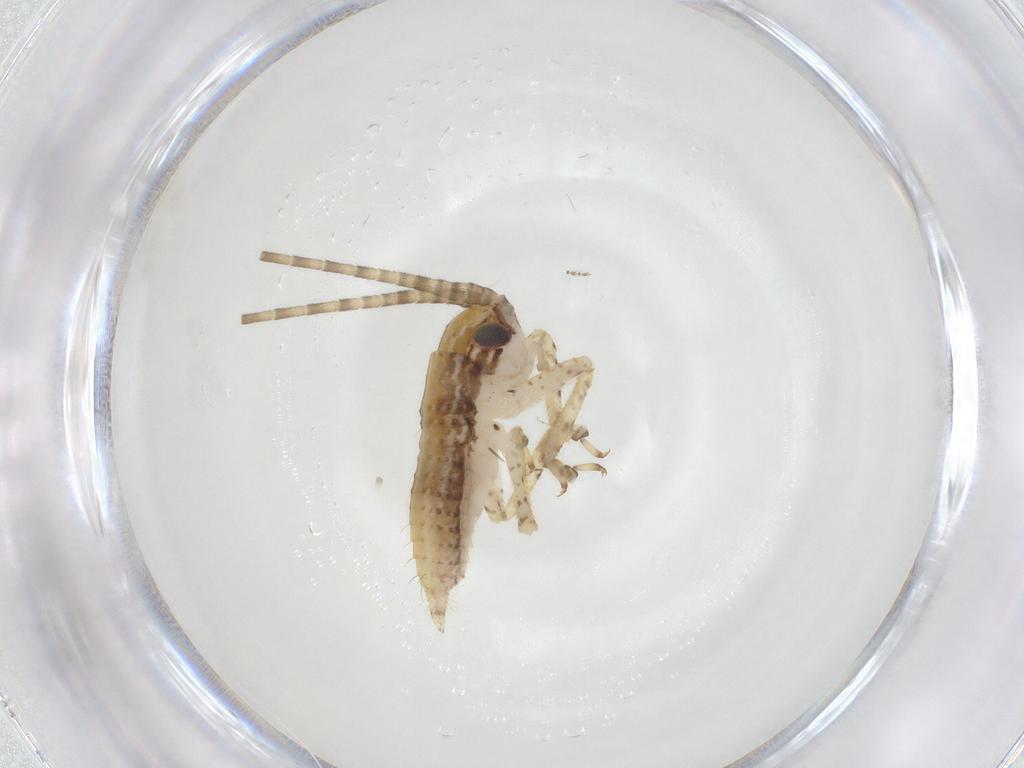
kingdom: Animalia
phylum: Arthropoda
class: Insecta
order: Orthoptera
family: Gryllidae
